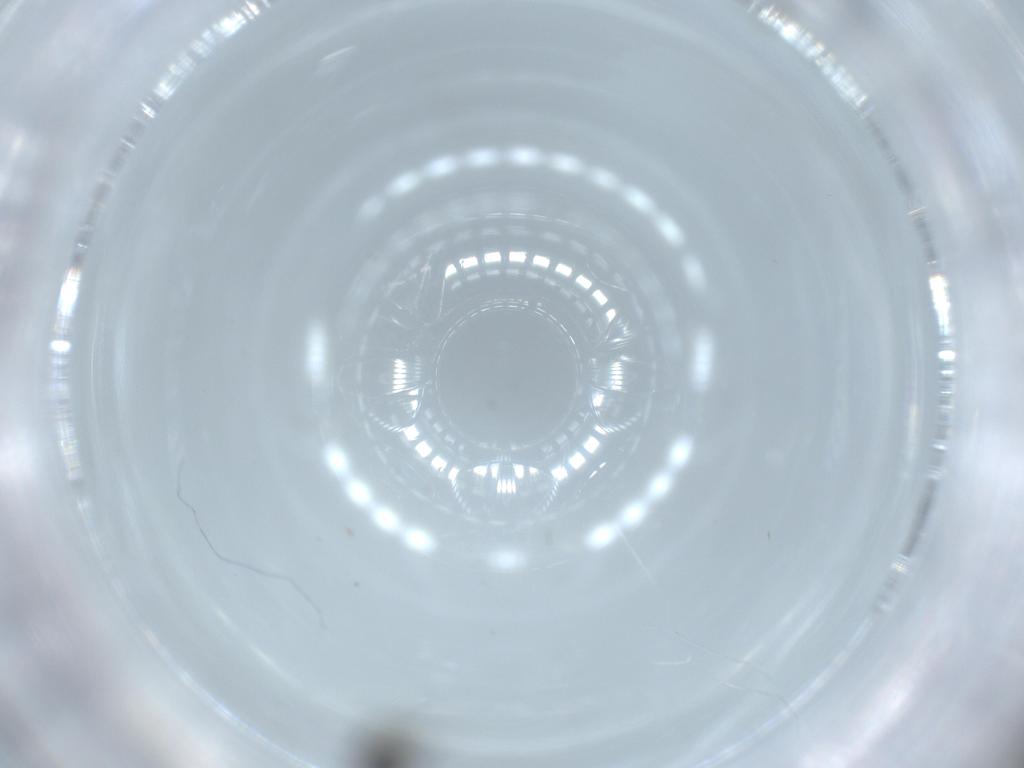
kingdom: Animalia
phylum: Arthropoda
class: Insecta
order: Diptera
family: Phoridae
